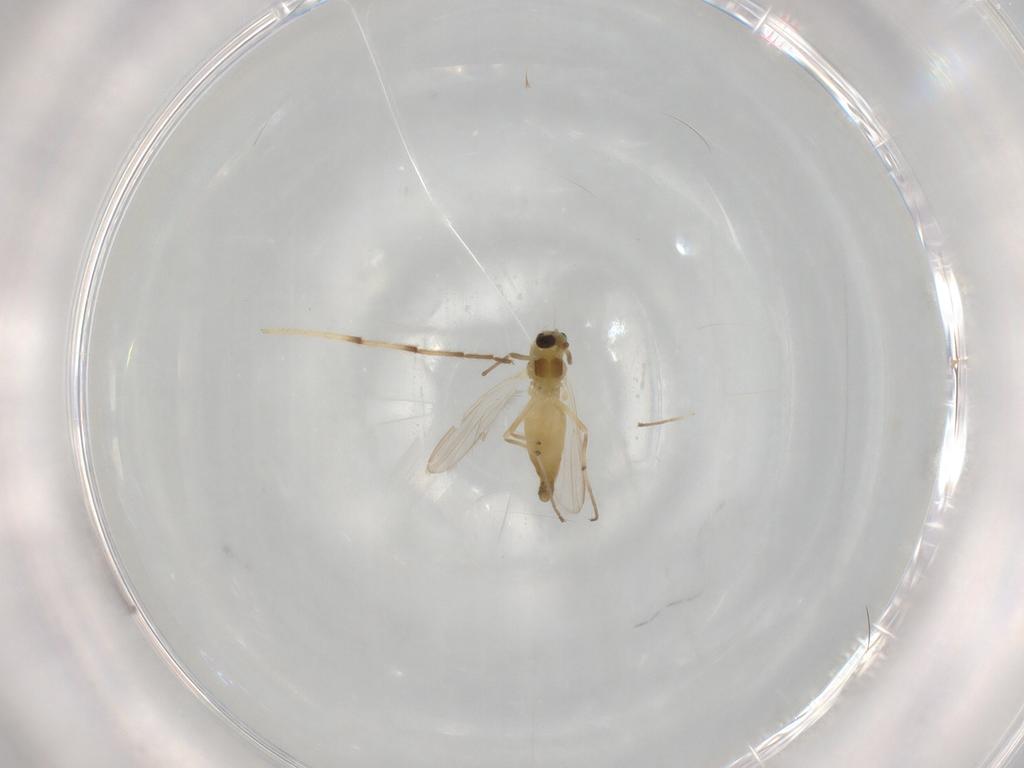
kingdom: Animalia
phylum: Arthropoda
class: Insecta
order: Diptera
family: Chironomidae
